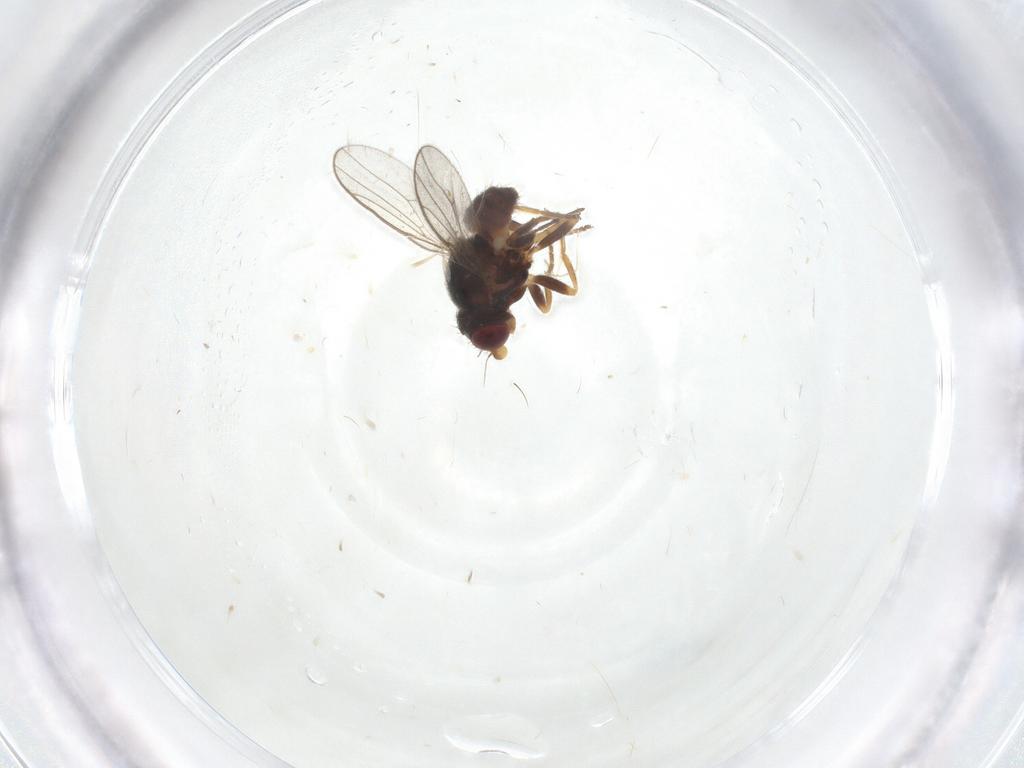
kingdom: Animalia
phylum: Arthropoda
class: Insecta
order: Diptera
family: Chloropidae
